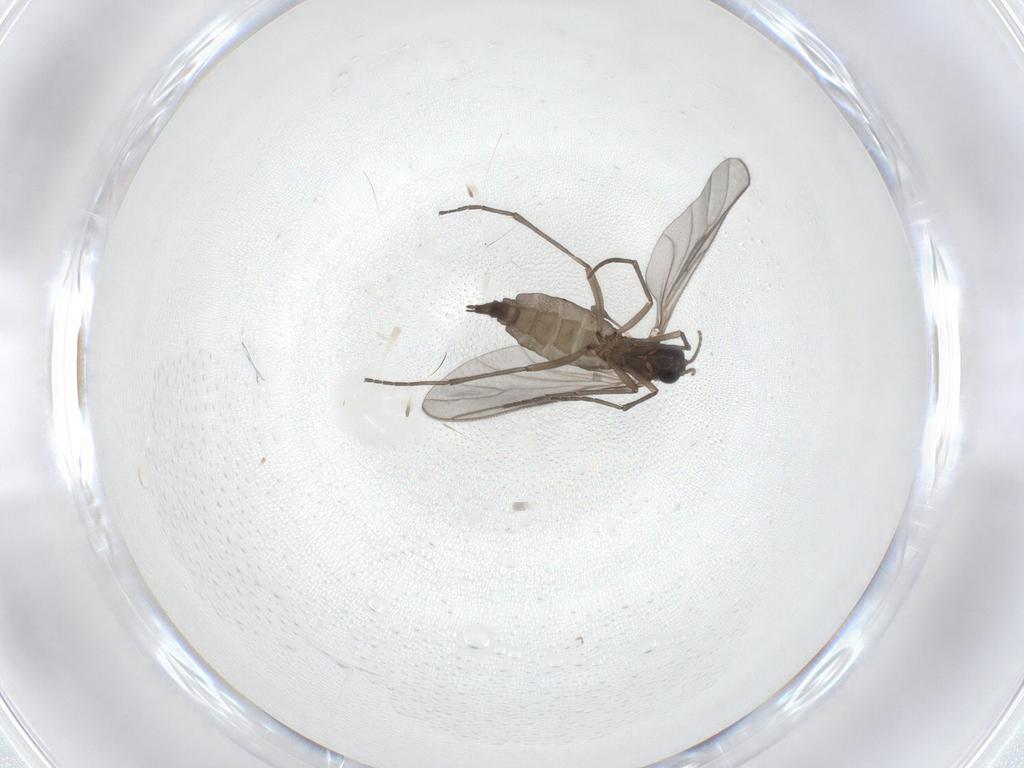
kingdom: Animalia
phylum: Arthropoda
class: Insecta
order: Diptera
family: Sciaridae
